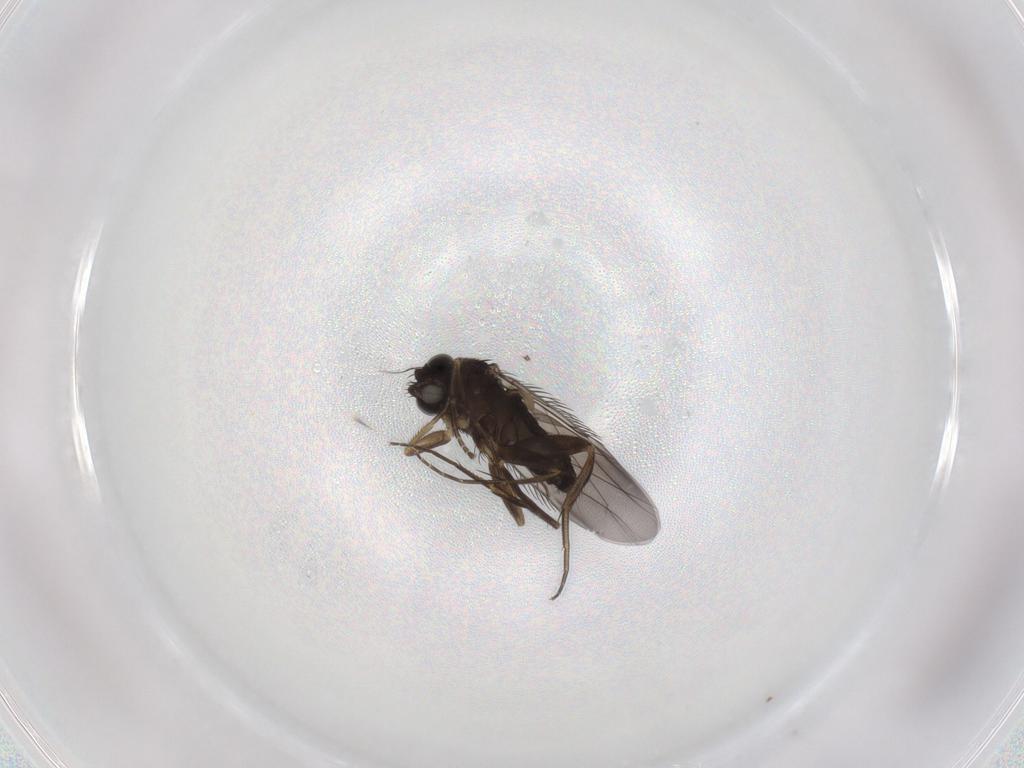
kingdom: Animalia
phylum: Arthropoda
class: Insecta
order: Diptera
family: Phoridae
